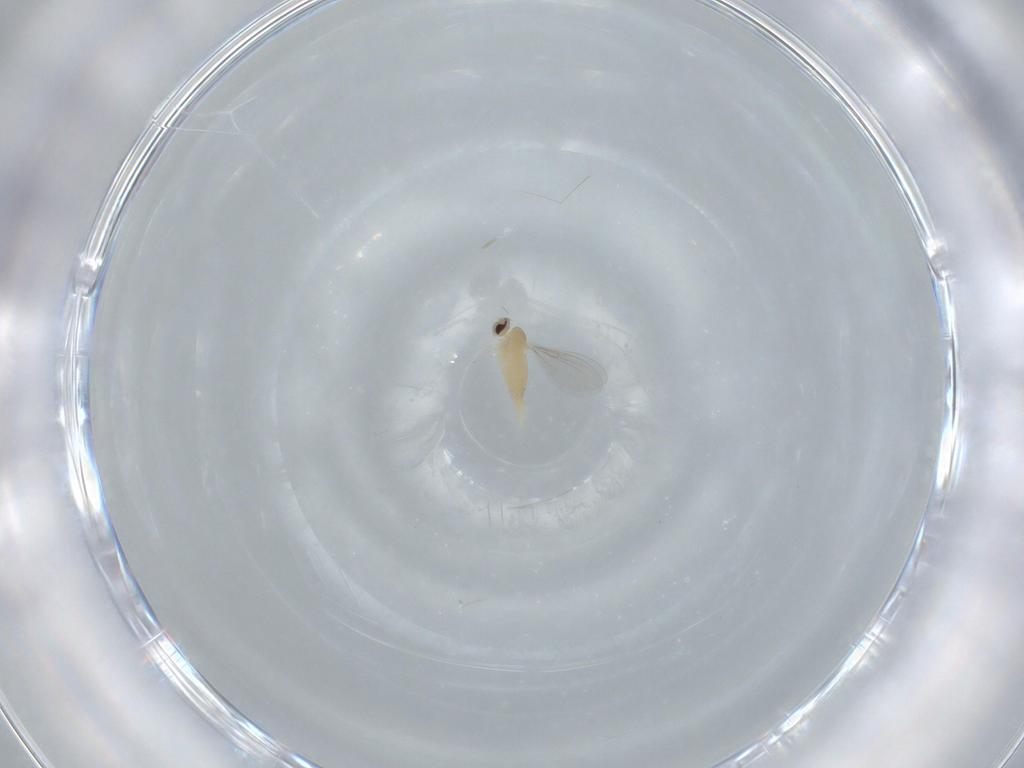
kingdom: Animalia
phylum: Arthropoda
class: Insecta
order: Diptera
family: Cecidomyiidae
